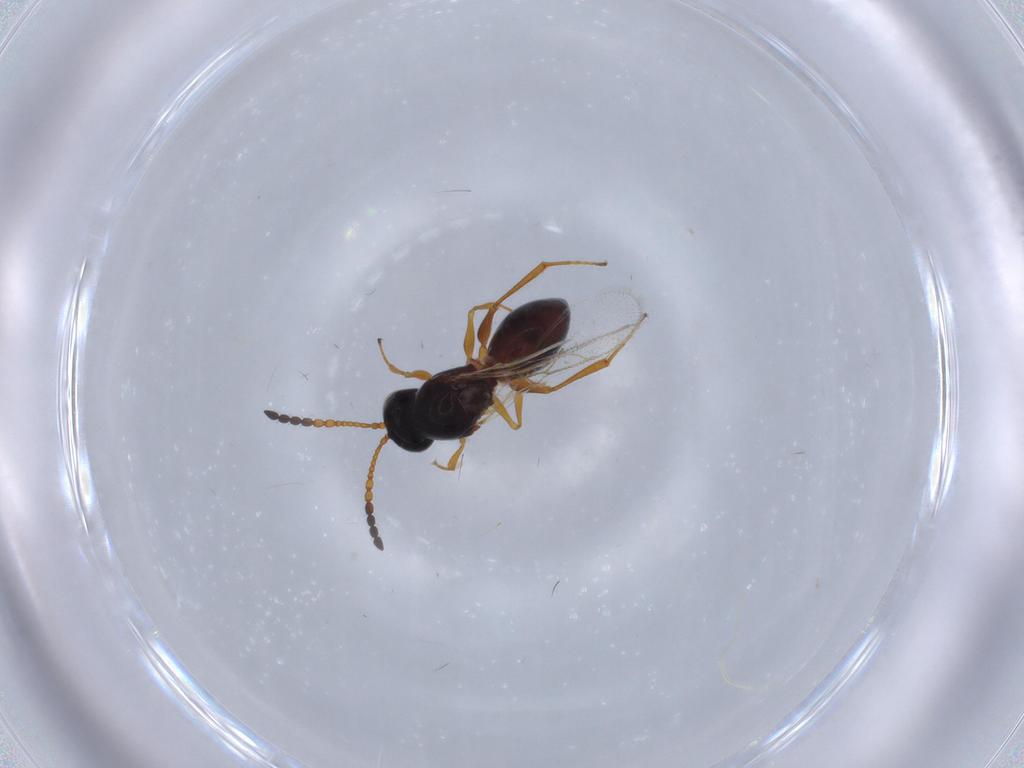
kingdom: Animalia
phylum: Arthropoda
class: Insecta
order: Hymenoptera
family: Figitidae
